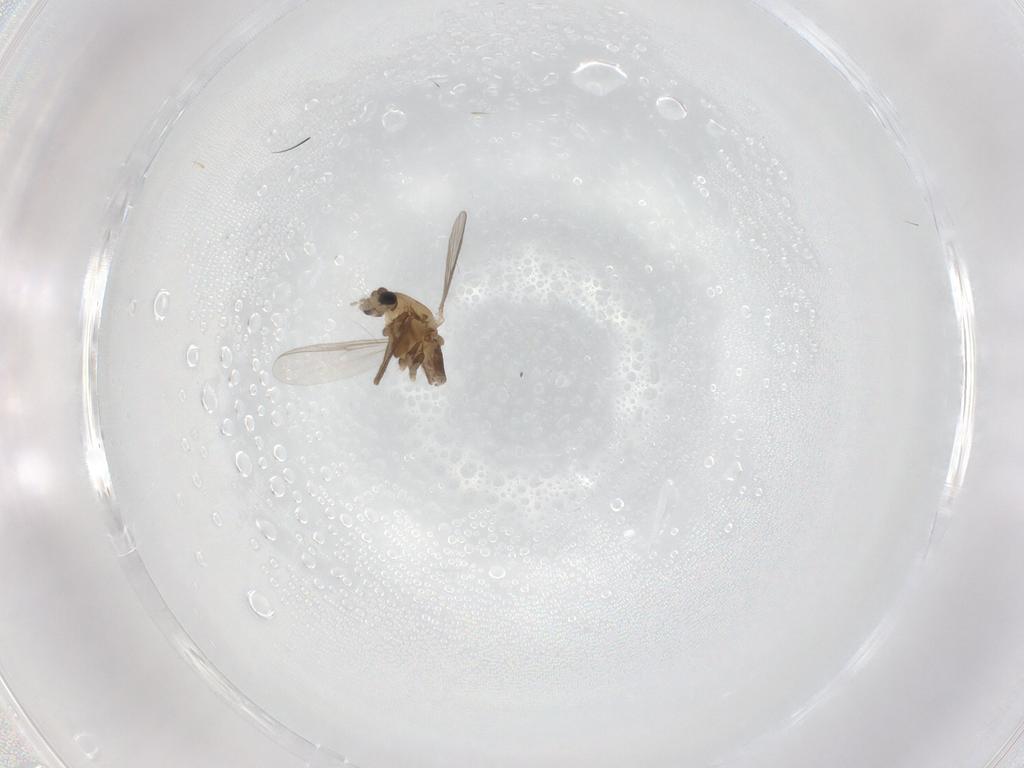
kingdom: Animalia
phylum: Arthropoda
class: Insecta
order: Diptera
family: Chironomidae
